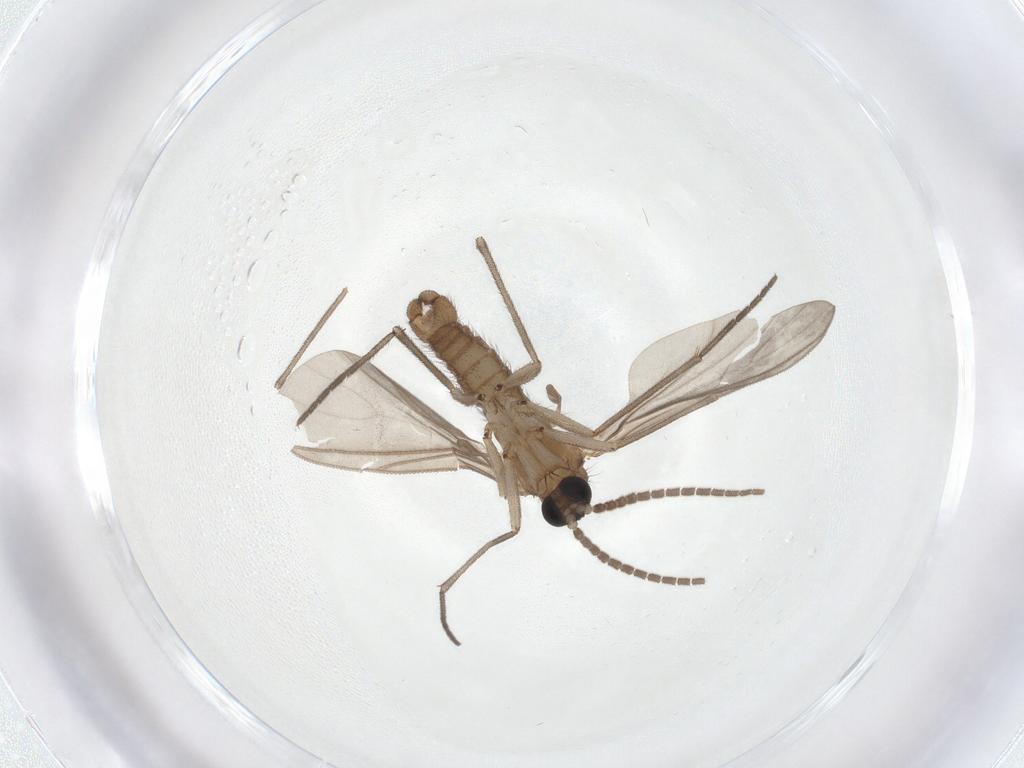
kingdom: Animalia
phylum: Arthropoda
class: Insecta
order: Diptera
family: Sciaridae
